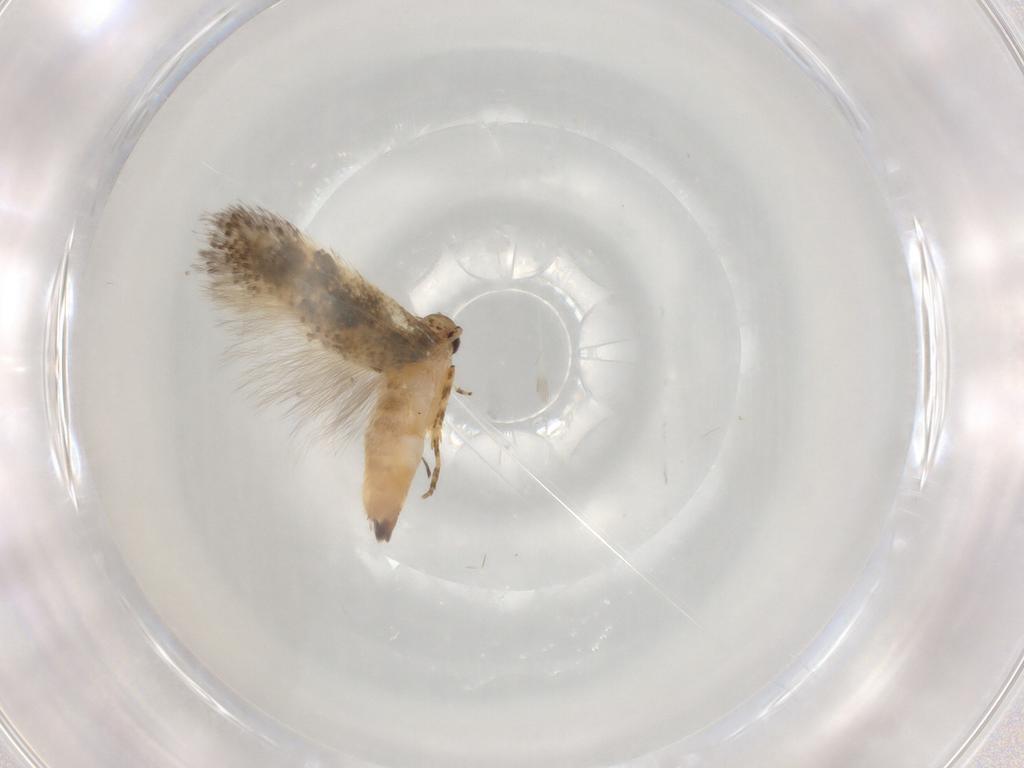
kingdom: Animalia
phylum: Arthropoda
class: Insecta
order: Lepidoptera
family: Gelechiidae
